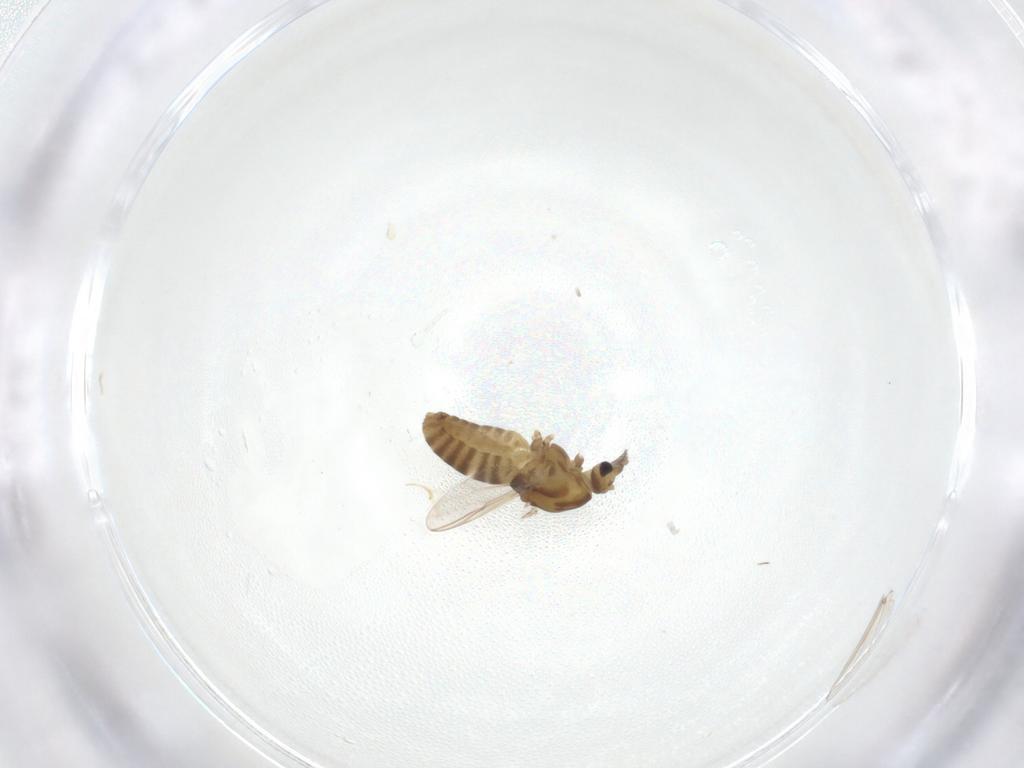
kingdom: Animalia
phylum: Arthropoda
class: Insecta
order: Diptera
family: Chironomidae
